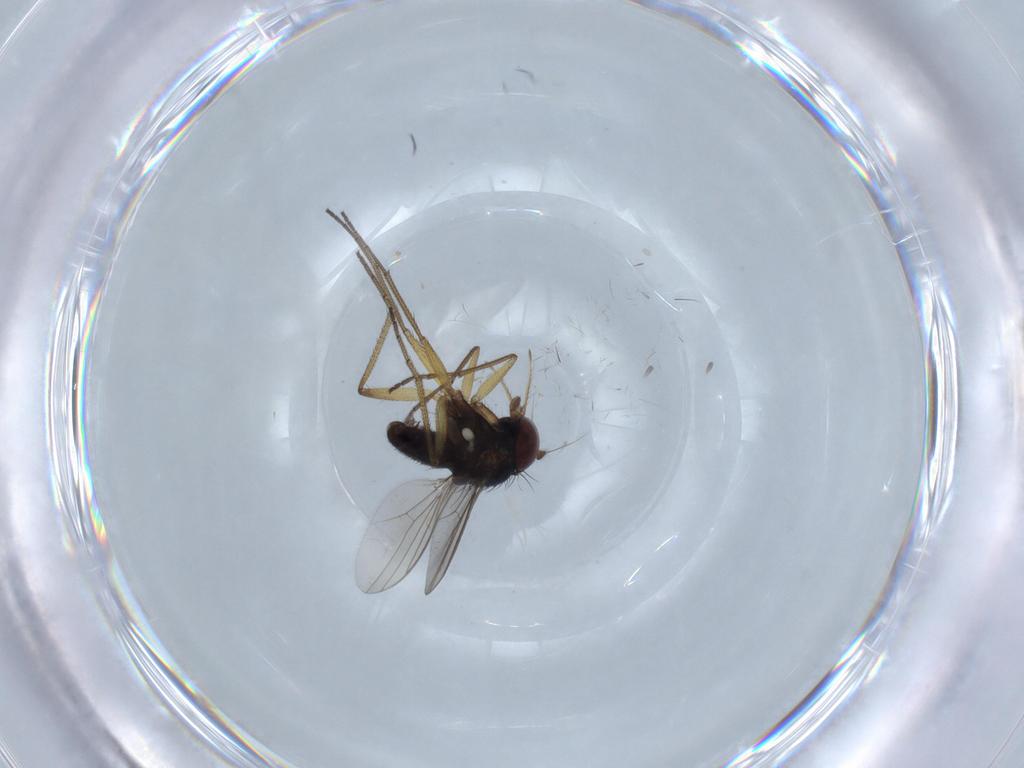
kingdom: Animalia
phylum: Arthropoda
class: Insecta
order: Diptera
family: Dolichopodidae
